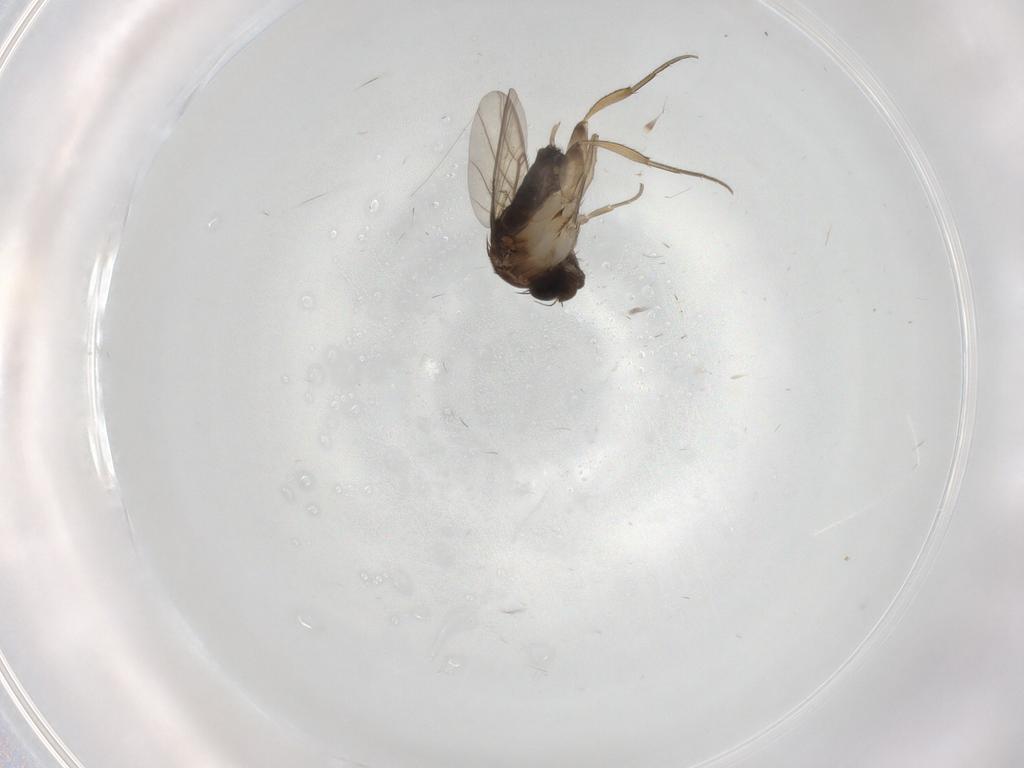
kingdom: Animalia
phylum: Arthropoda
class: Insecta
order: Diptera
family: Phoridae
